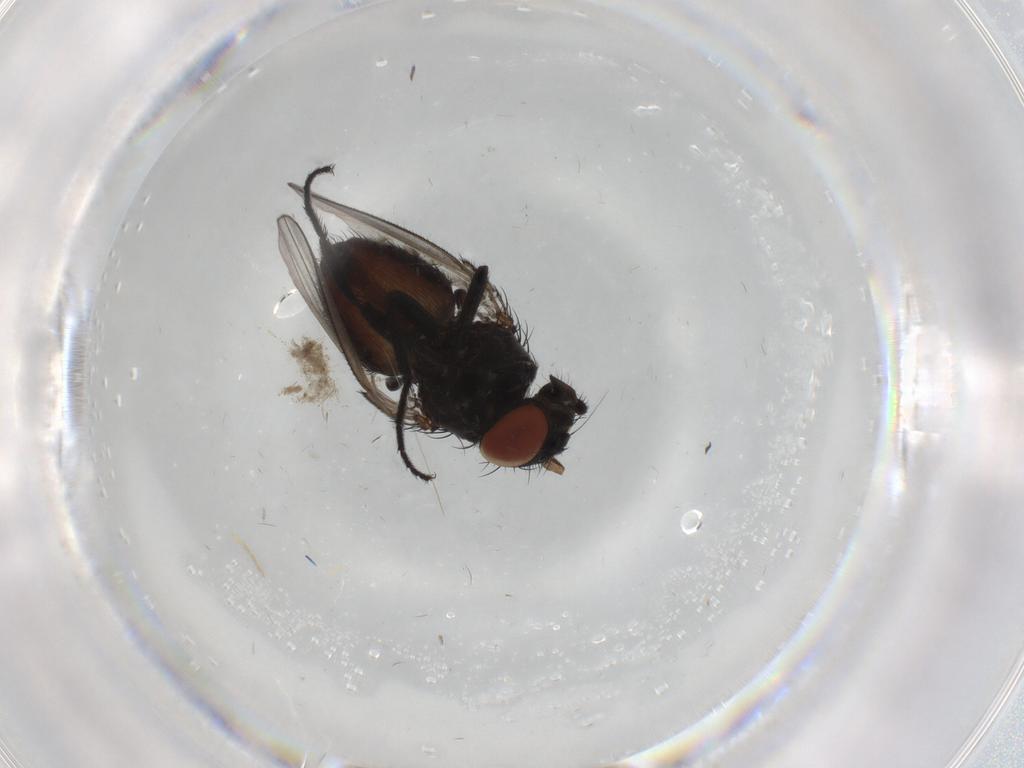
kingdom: Animalia
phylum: Arthropoda
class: Insecta
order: Diptera
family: Milichiidae
